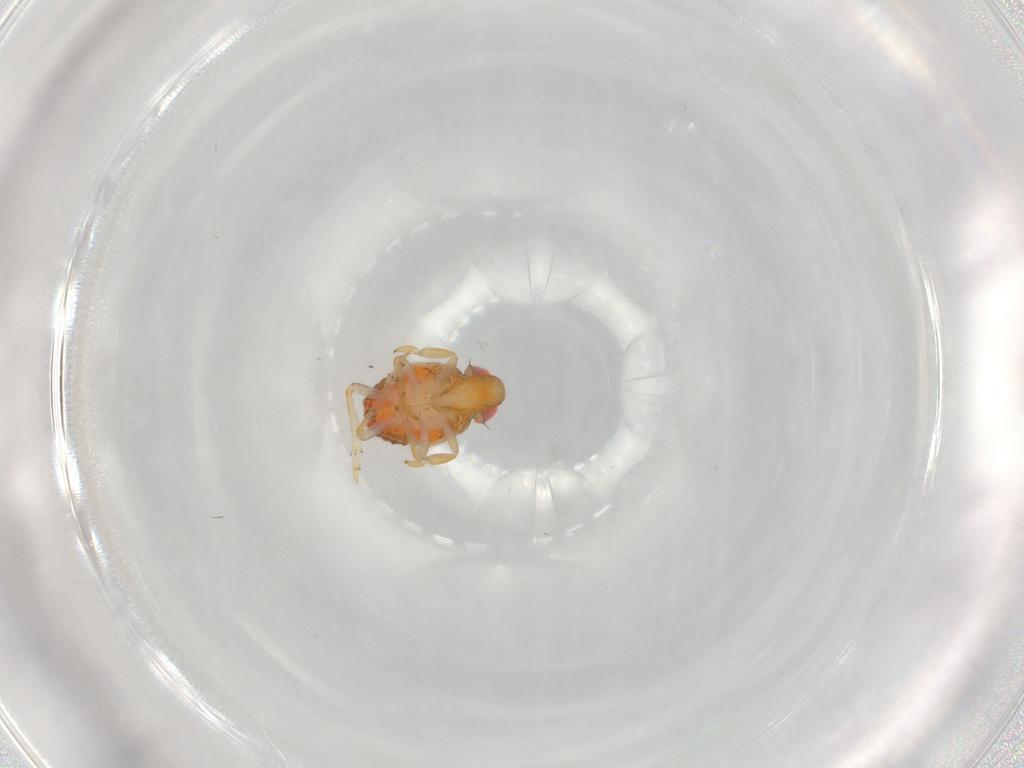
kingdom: Animalia
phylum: Arthropoda
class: Insecta
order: Hemiptera
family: Issidae
